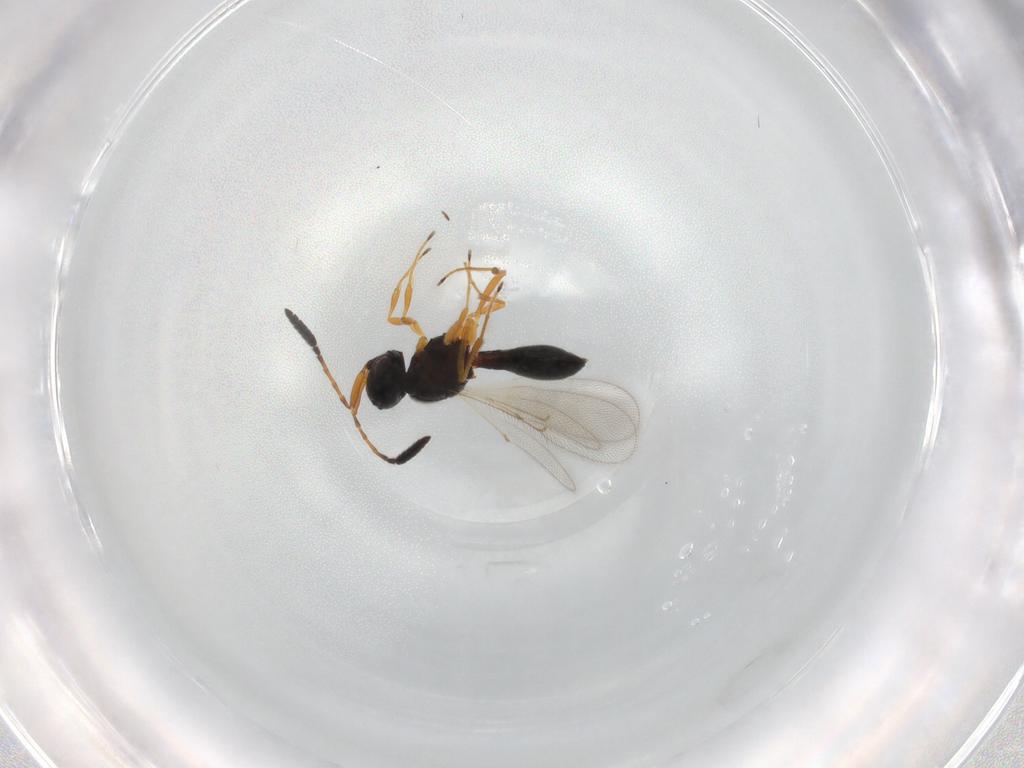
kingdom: Animalia
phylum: Arthropoda
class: Insecta
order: Hymenoptera
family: Scelionidae
